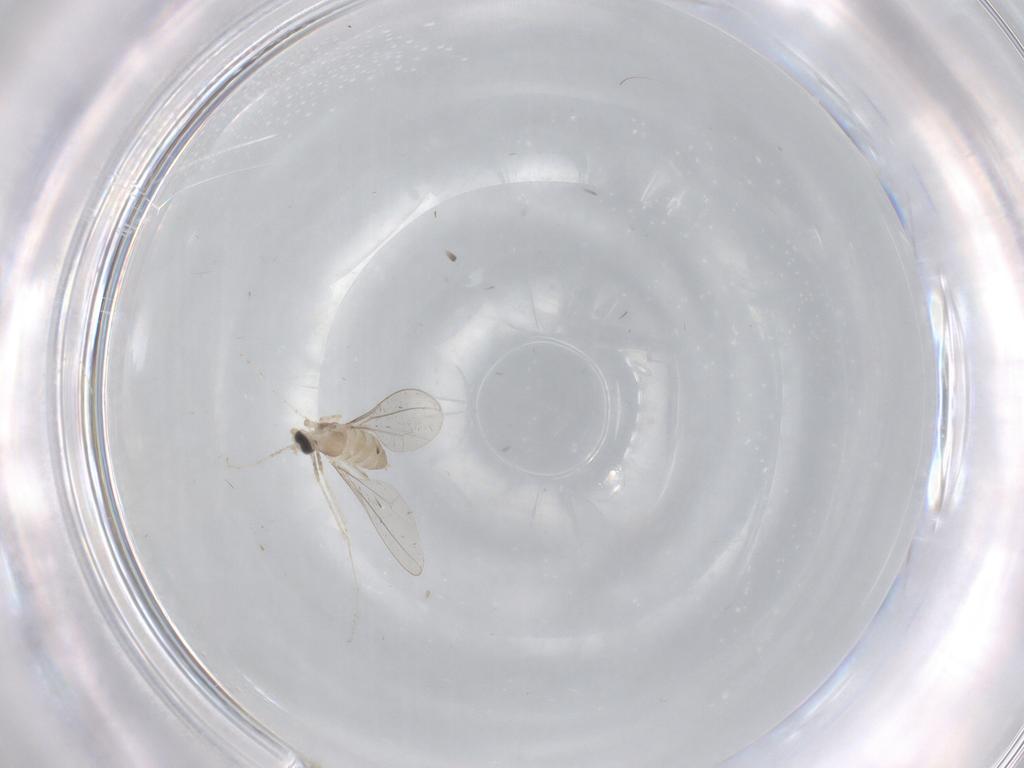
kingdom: Animalia
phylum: Arthropoda
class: Insecta
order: Diptera
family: Cecidomyiidae
